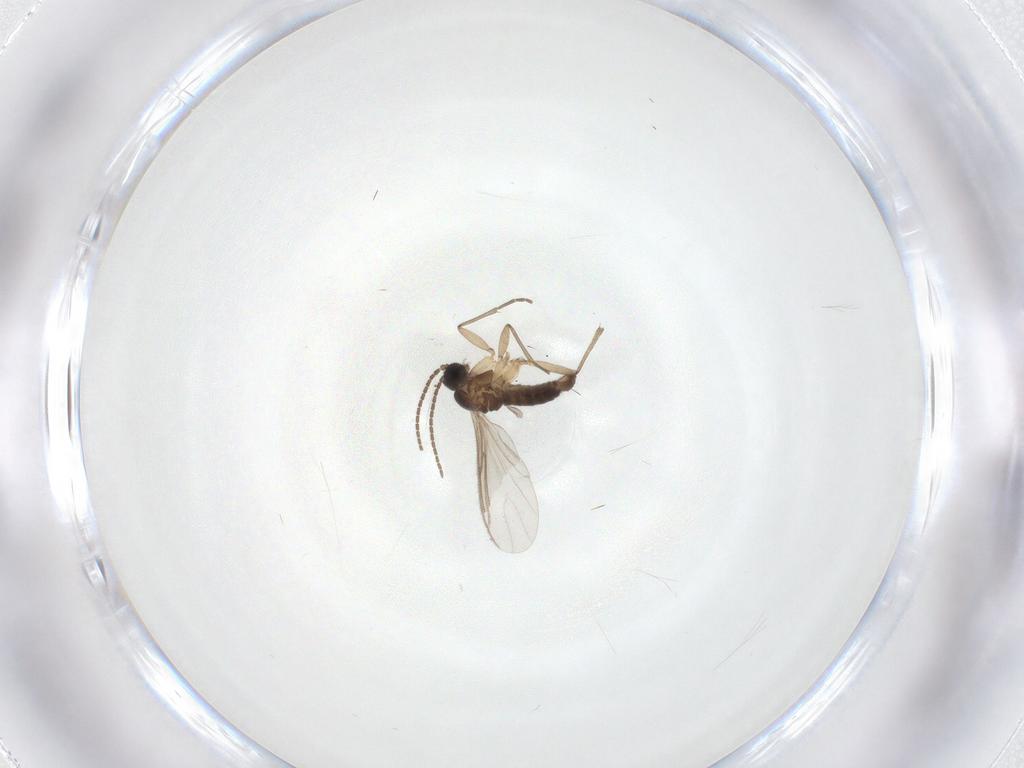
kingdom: Animalia
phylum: Arthropoda
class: Insecta
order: Diptera
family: Sciaridae
